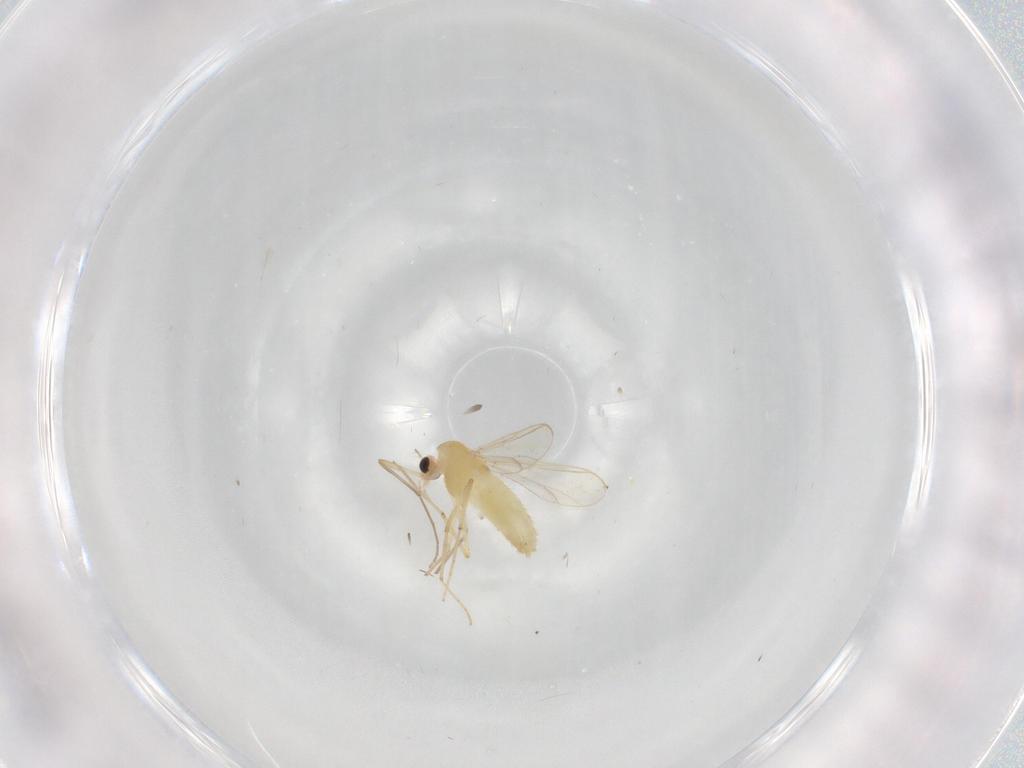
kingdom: Animalia
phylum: Arthropoda
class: Insecta
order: Diptera
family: Chironomidae
